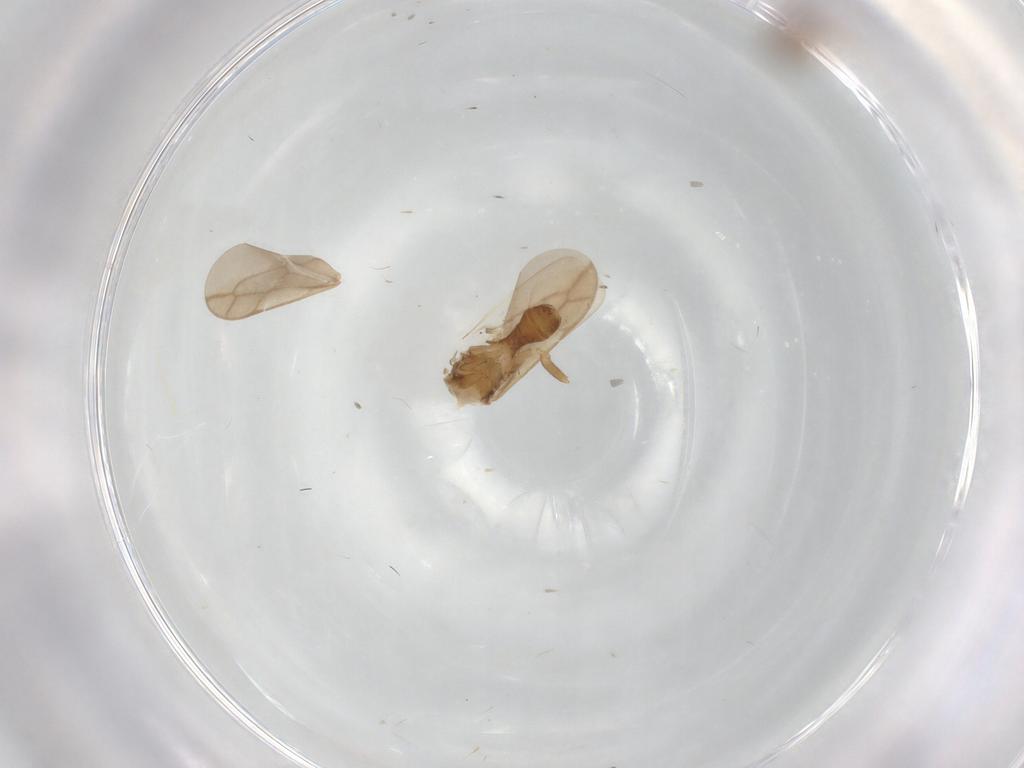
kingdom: Animalia
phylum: Arthropoda
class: Insecta
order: Hemiptera
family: Ceratocombidae
